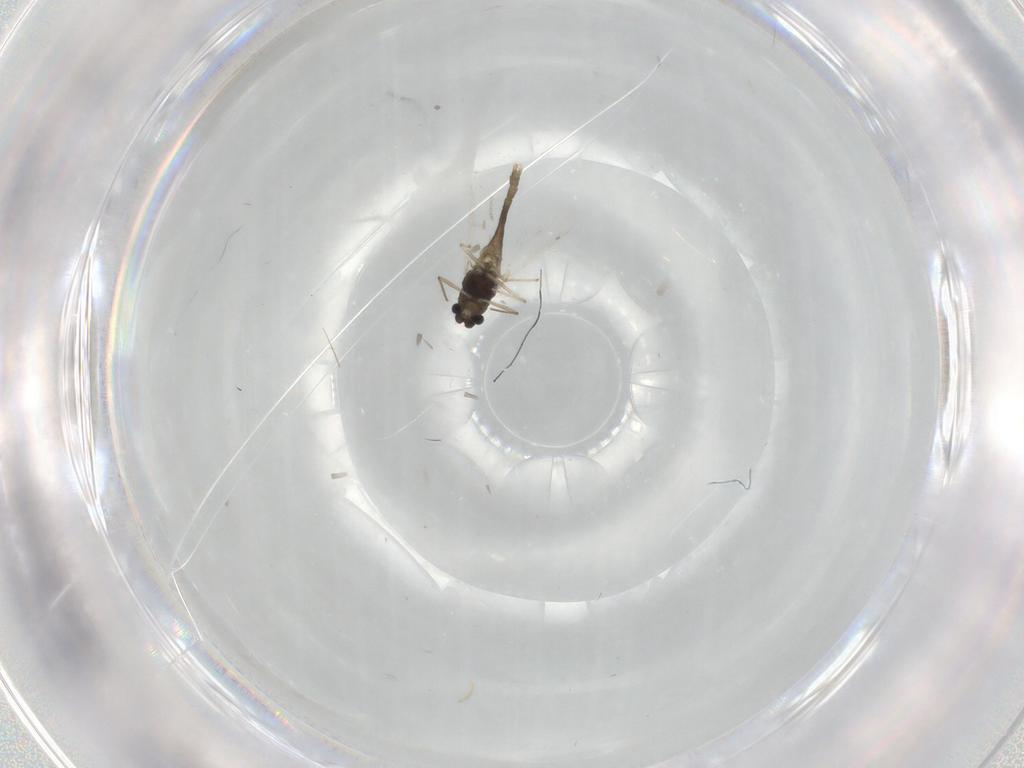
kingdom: Animalia
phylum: Arthropoda
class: Insecta
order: Diptera
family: Chironomidae
